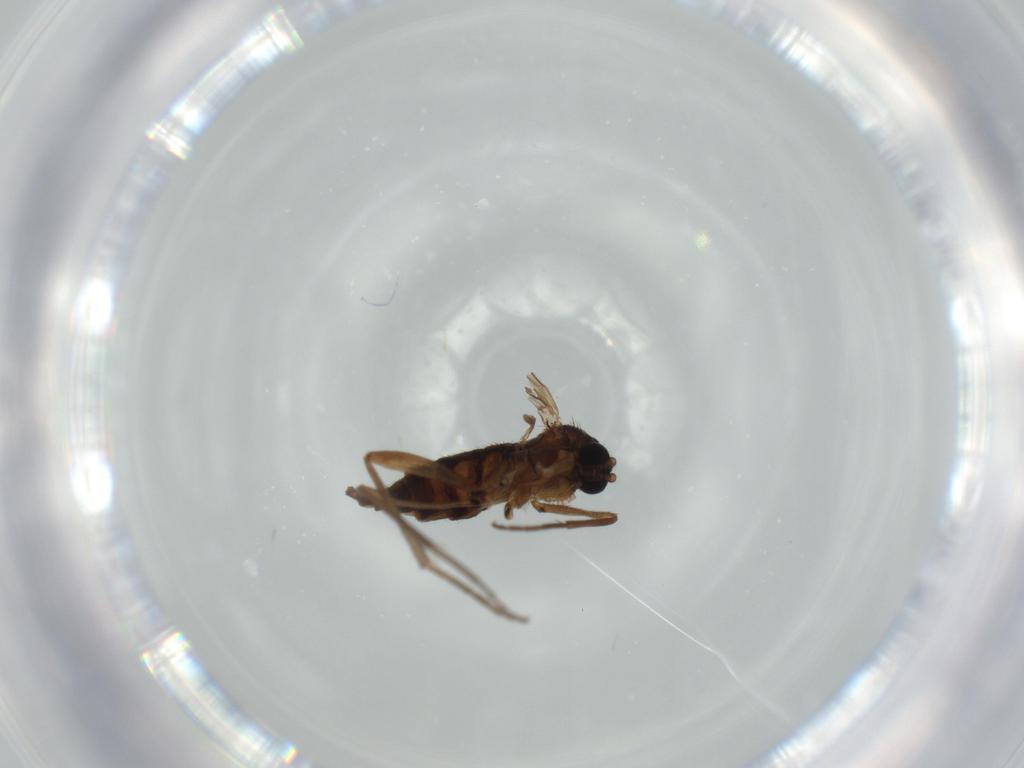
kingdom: Animalia
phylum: Arthropoda
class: Insecta
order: Diptera
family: Sciaridae
